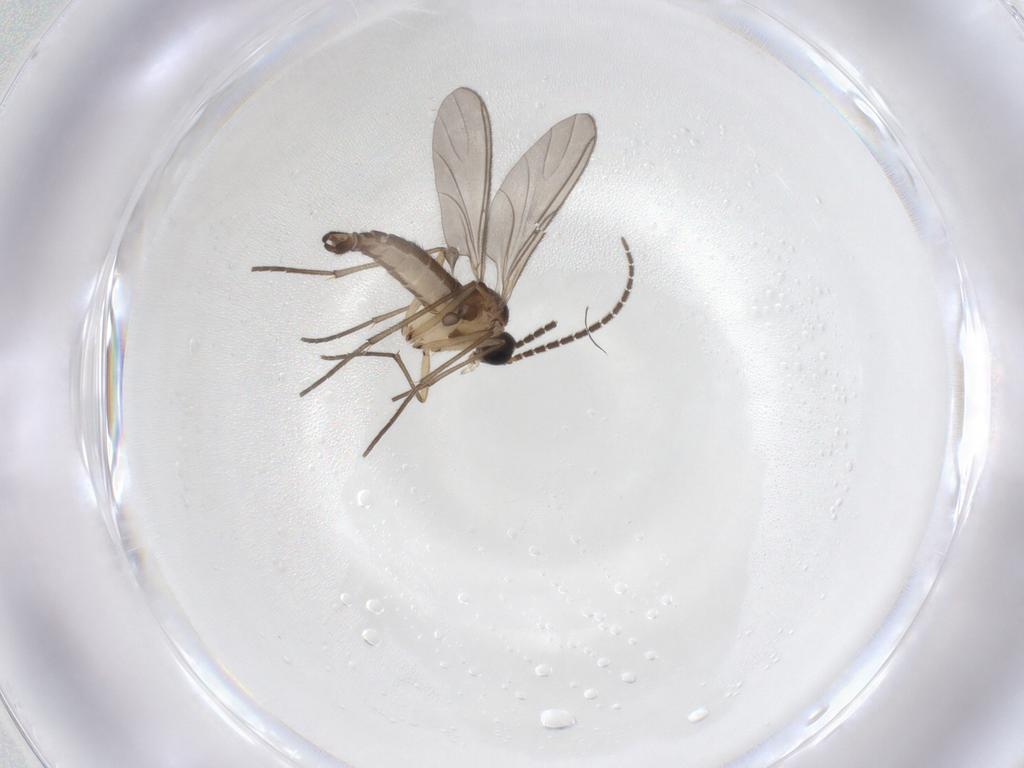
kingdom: Animalia
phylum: Arthropoda
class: Insecta
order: Diptera
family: Sciaridae
